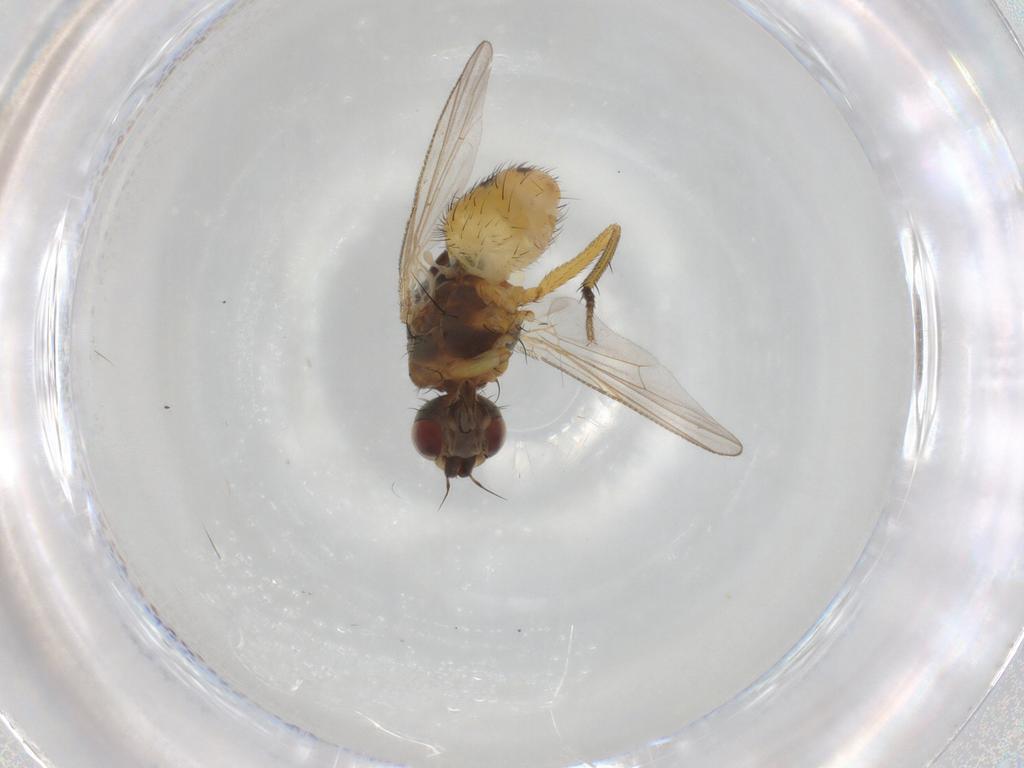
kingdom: Animalia
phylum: Arthropoda
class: Insecta
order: Diptera
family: Muscidae
